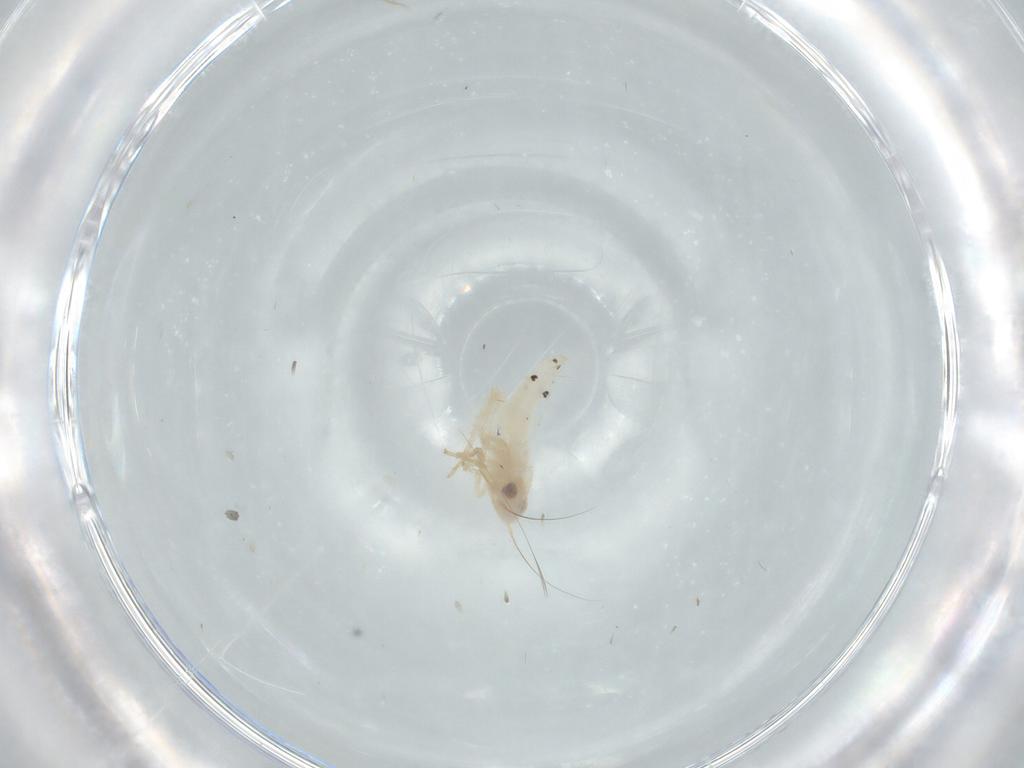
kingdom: Animalia
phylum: Arthropoda
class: Insecta
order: Hemiptera
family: Cicadellidae
